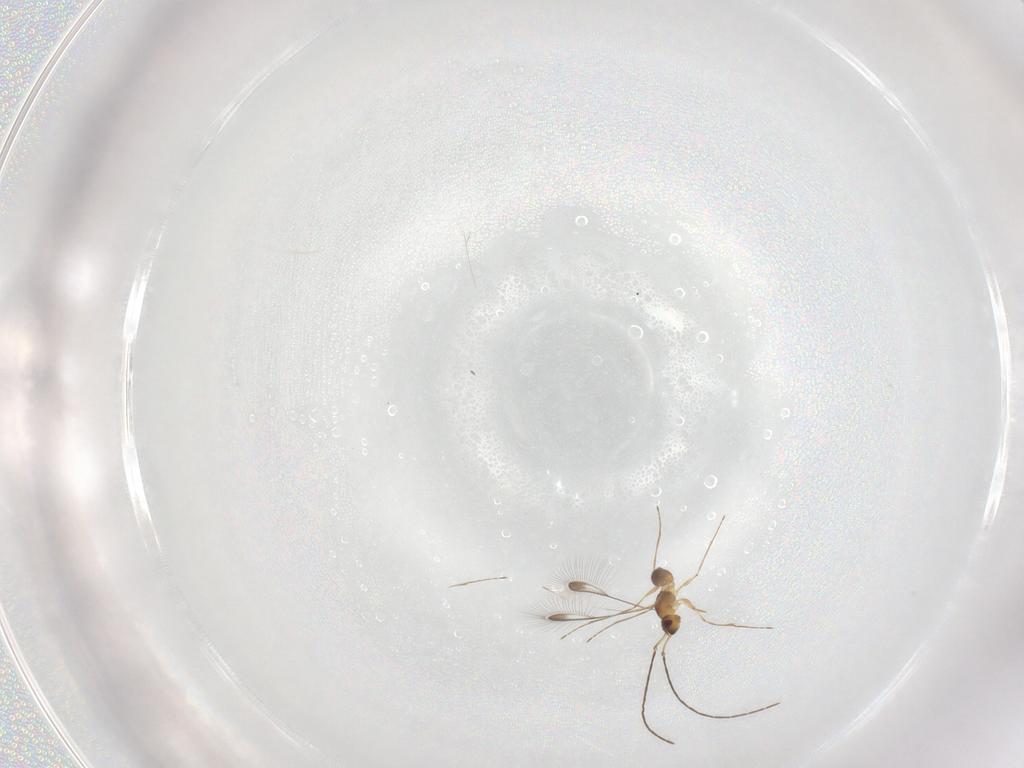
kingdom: Animalia
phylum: Arthropoda
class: Insecta
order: Hymenoptera
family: Mymaridae
